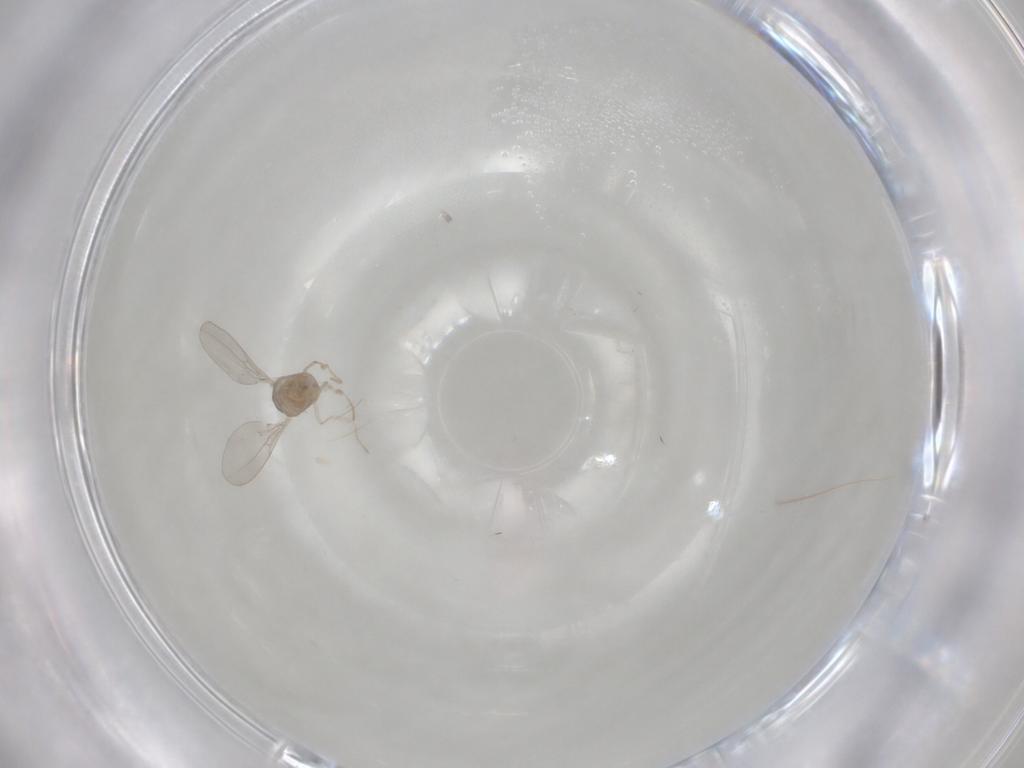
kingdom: Animalia
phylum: Arthropoda
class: Insecta
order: Diptera
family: Cecidomyiidae
